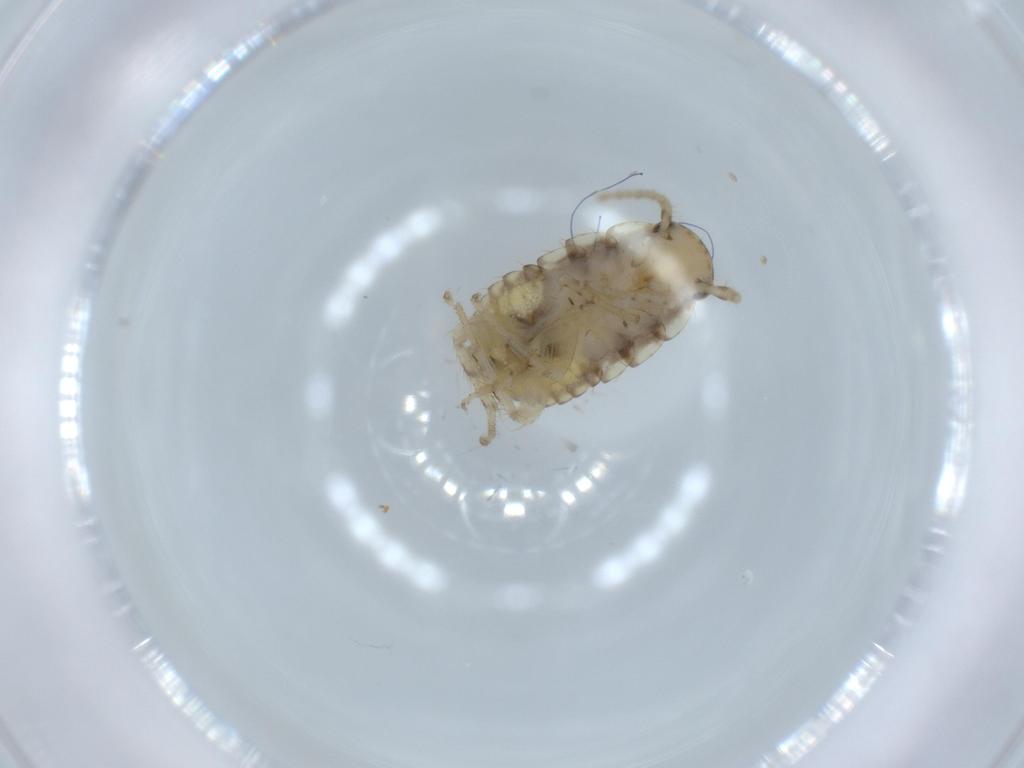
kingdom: Animalia
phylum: Arthropoda
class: Insecta
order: Blattodea
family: Ectobiidae
